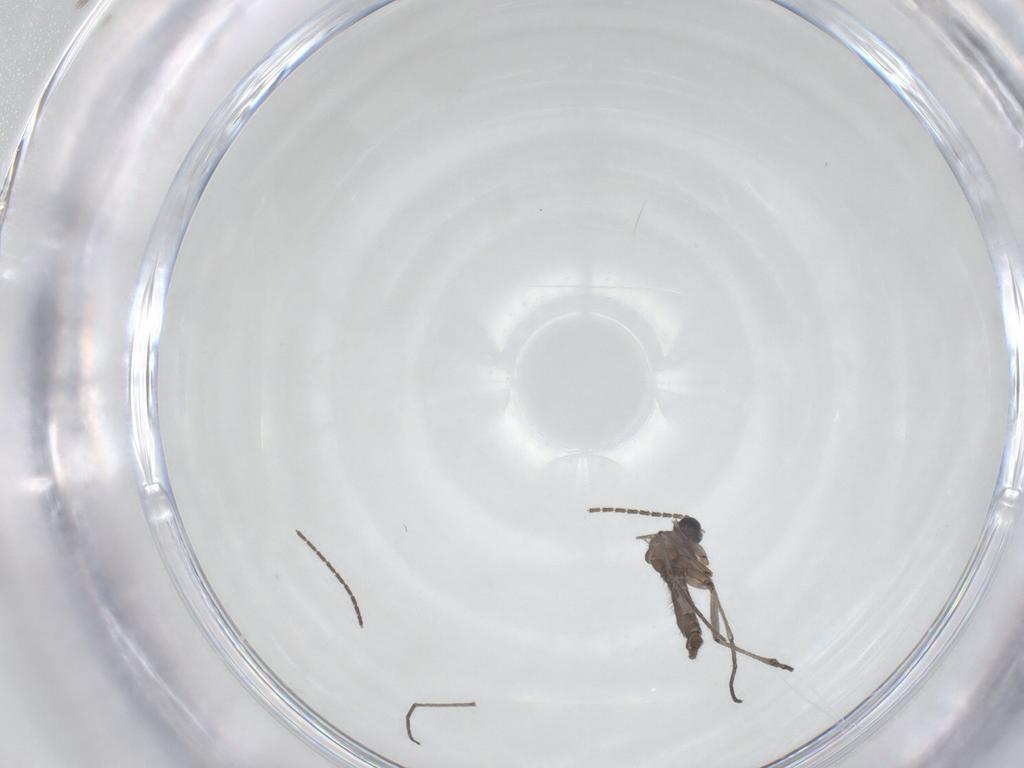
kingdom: Animalia
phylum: Arthropoda
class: Insecta
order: Diptera
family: Sciaridae
